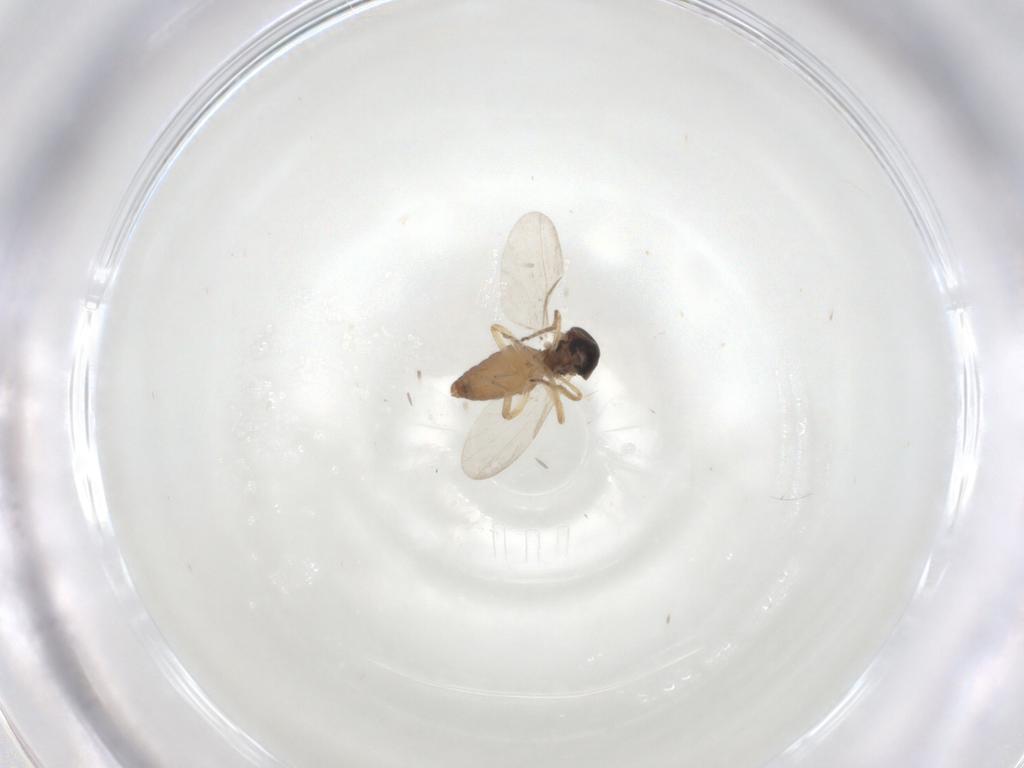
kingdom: Animalia
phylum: Arthropoda
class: Insecta
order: Diptera
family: Ceratopogonidae
